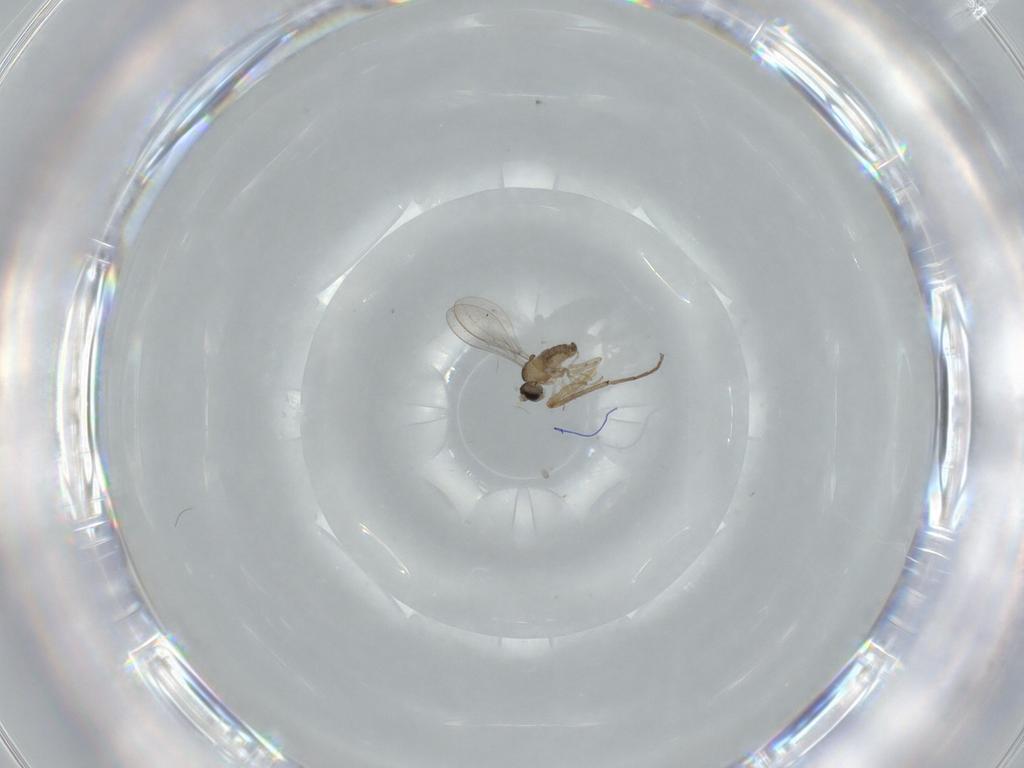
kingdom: Animalia
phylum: Arthropoda
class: Insecta
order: Diptera
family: Cecidomyiidae
